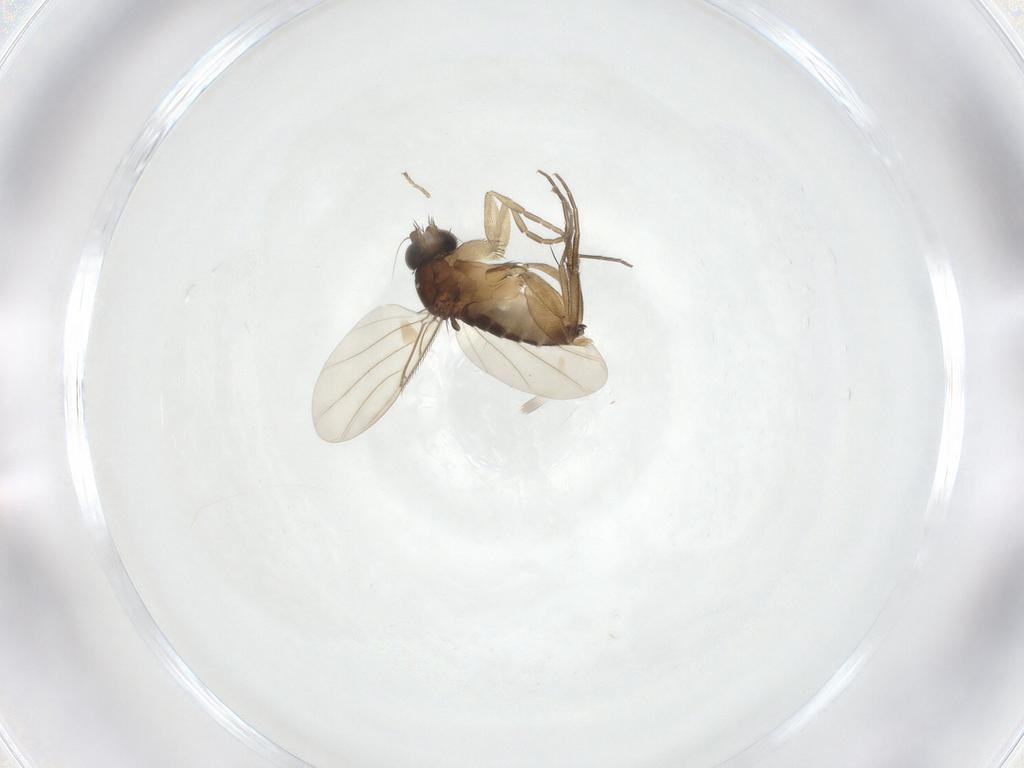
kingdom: Animalia
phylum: Arthropoda
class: Insecta
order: Diptera
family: Phoridae
